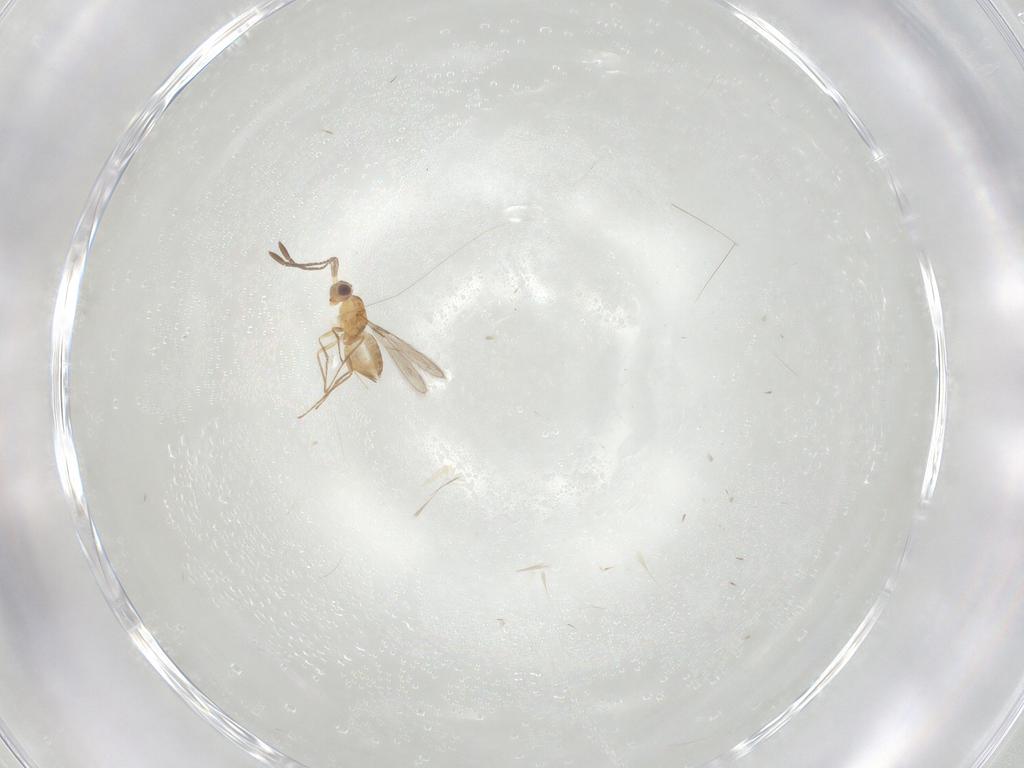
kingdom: Animalia
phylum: Arthropoda
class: Insecta
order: Hymenoptera
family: Mymaridae
